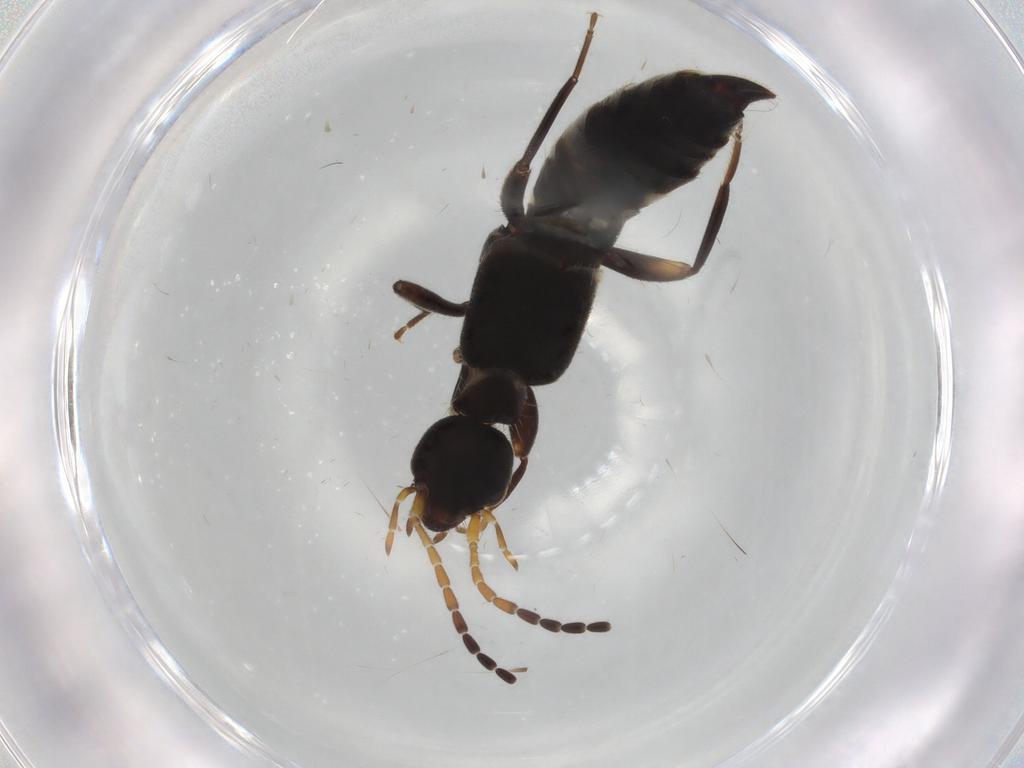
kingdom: Animalia
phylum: Arthropoda
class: Insecta
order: Dermaptera
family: Forficulidae
